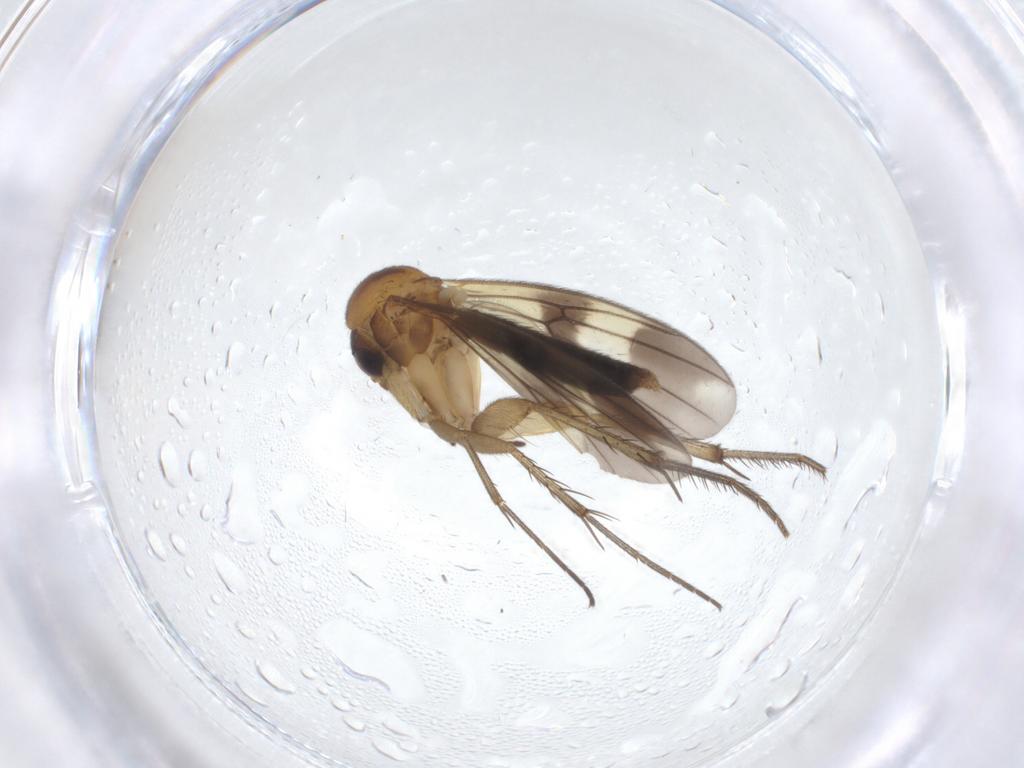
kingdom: Animalia
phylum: Arthropoda
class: Insecta
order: Diptera
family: Mycetophilidae
